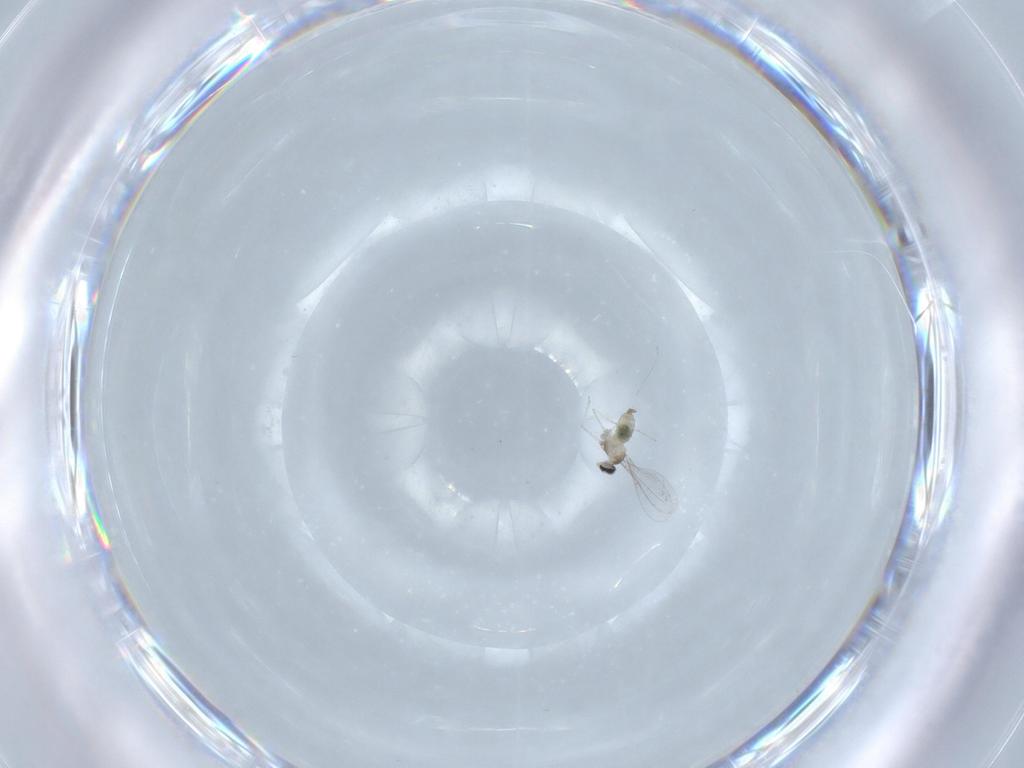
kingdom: Animalia
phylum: Arthropoda
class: Insecta
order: Diptera
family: Cecidomyiidae
